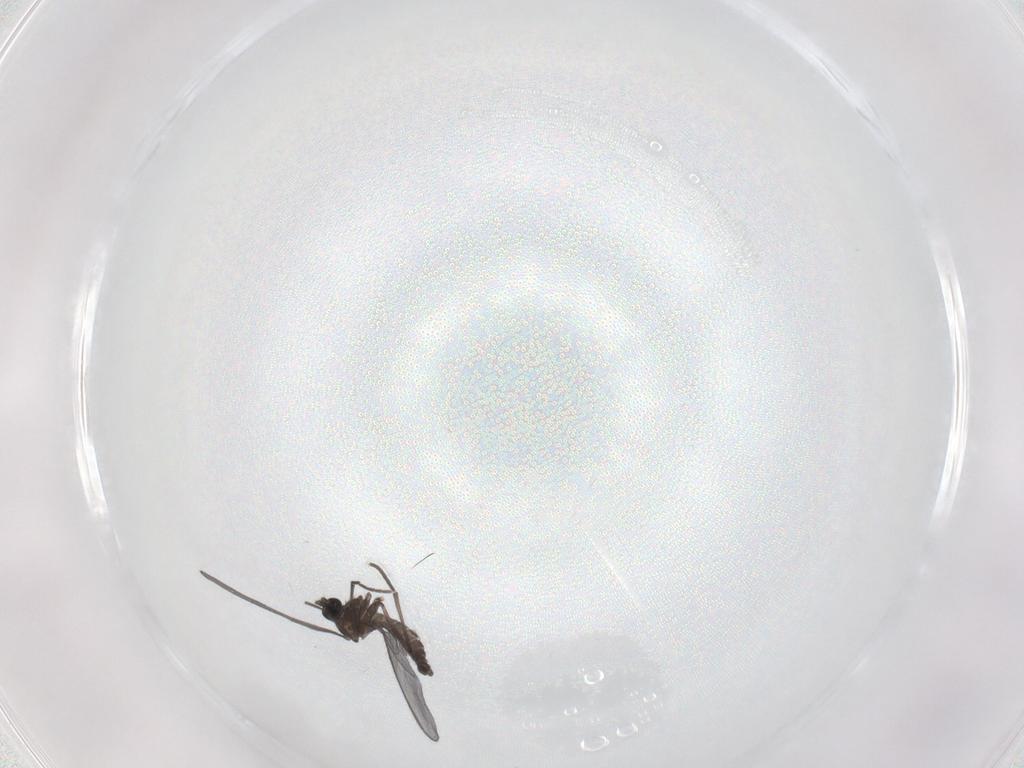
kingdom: Animalia
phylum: Arthropoda
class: Insecta
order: Diptera
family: Sciaridae
